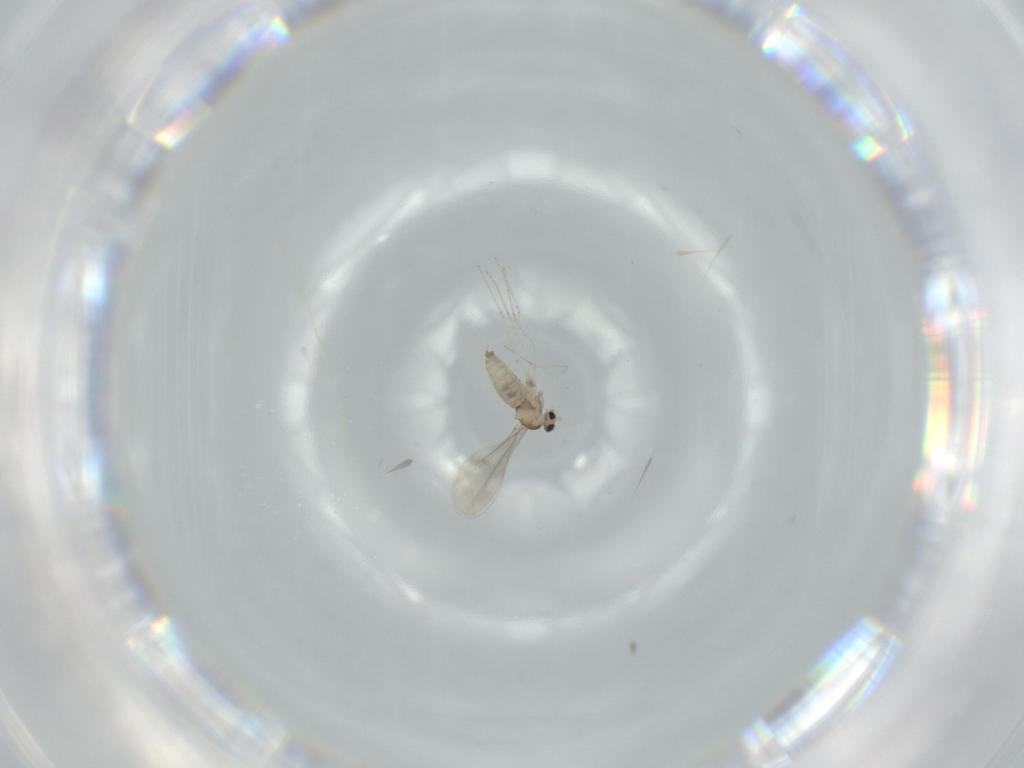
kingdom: Animalia
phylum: Arthropoda
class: Insecta
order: Diptera
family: Cecidomyiidae
